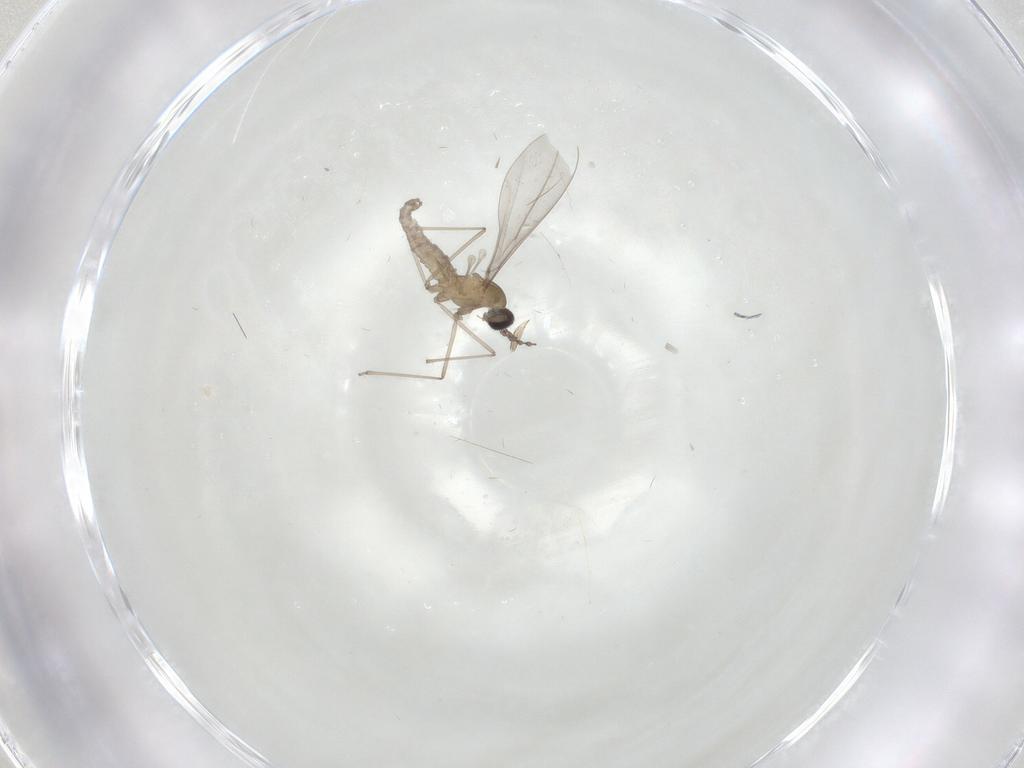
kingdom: Animalia
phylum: Arthropoda
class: Insecta
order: Diptera
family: Cecidomyiidae
